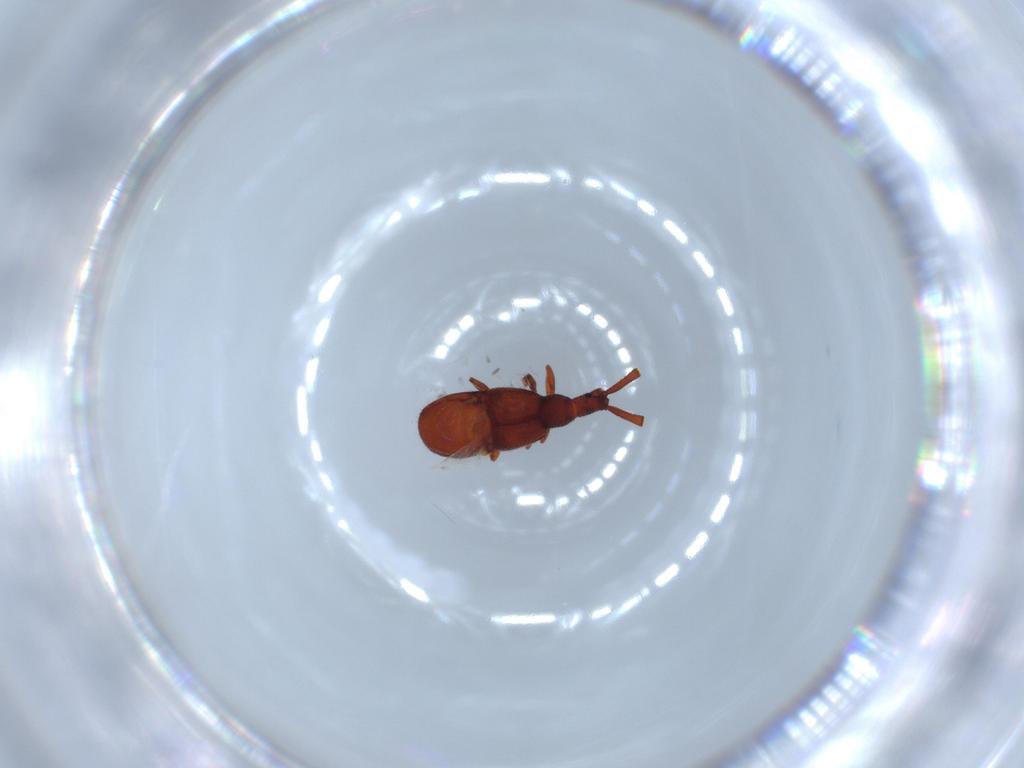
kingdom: Animalia
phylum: Arthropoda
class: Insecta
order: Coleoptera
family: Staphylinidae
